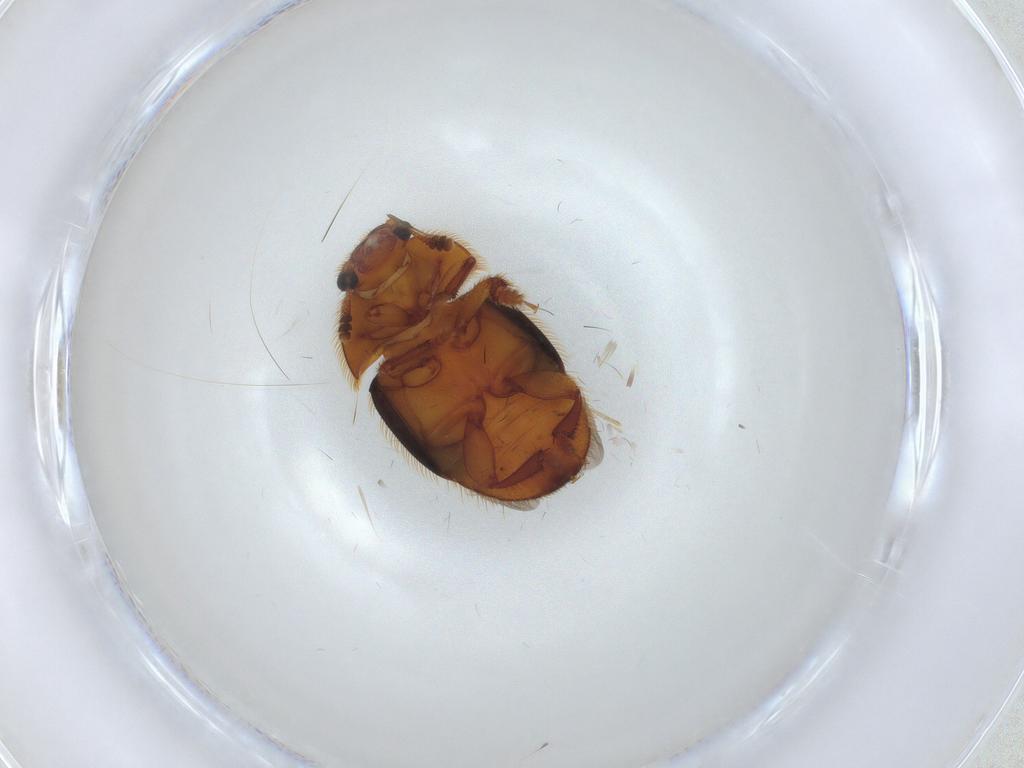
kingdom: Animalia
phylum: Arthropoda
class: Insecta
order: Coleoptera
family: Nitidulidae
